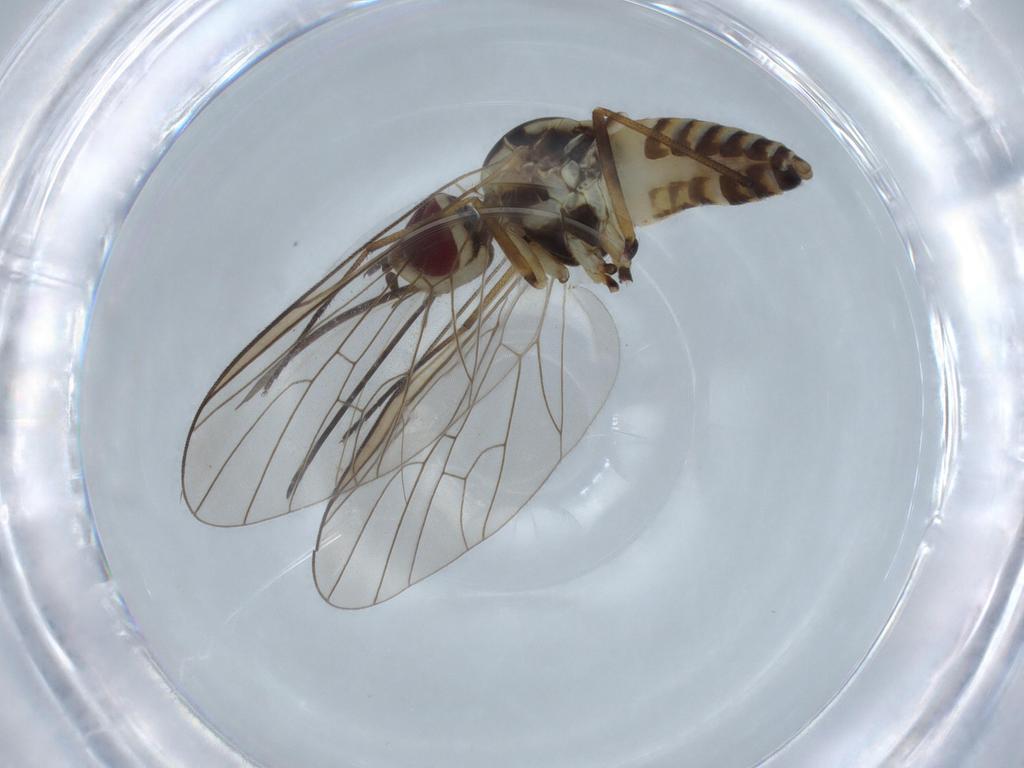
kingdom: Animalia
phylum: Arthropoda
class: Insecta
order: Diptera
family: Bombyliidae
